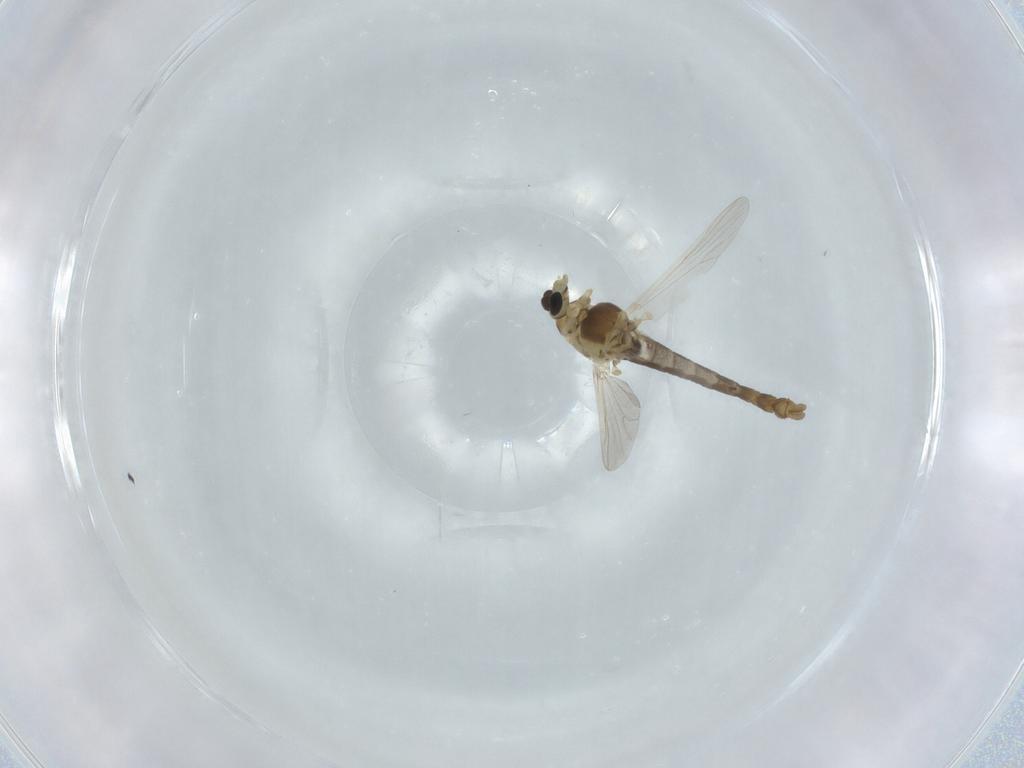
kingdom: Animalia
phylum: Arthropoda
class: Insecta
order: Diptera
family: Chironomidae
